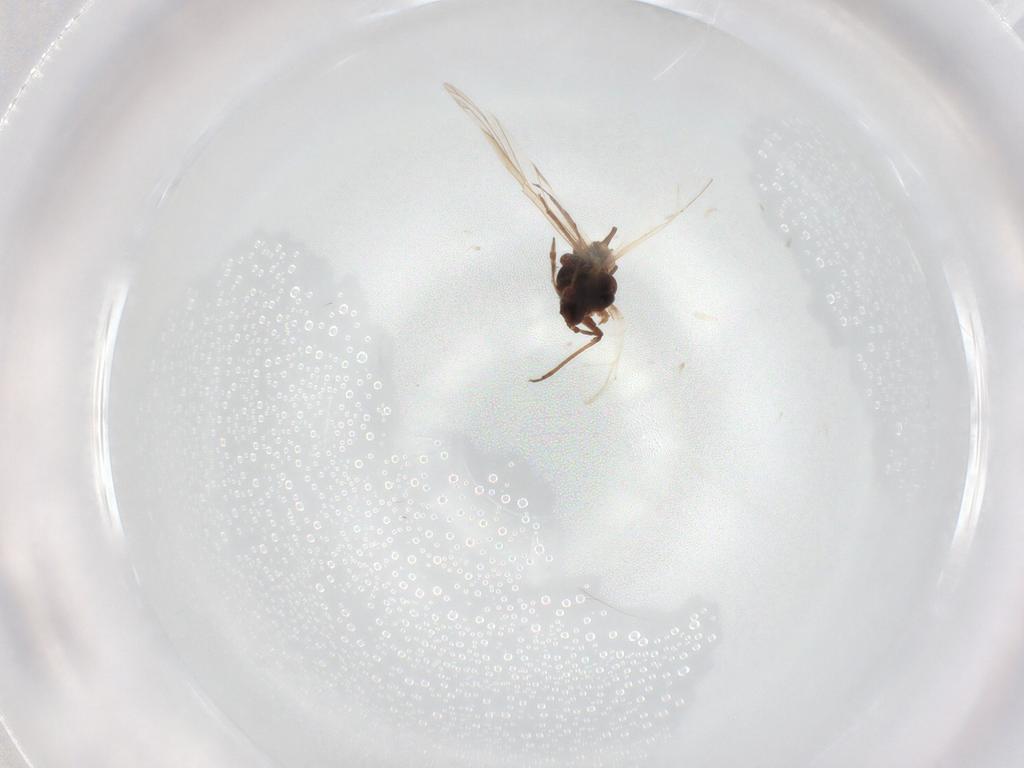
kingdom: Animalia
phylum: Arthropoda
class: Insecta
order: Hemiptera
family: Aphididae
